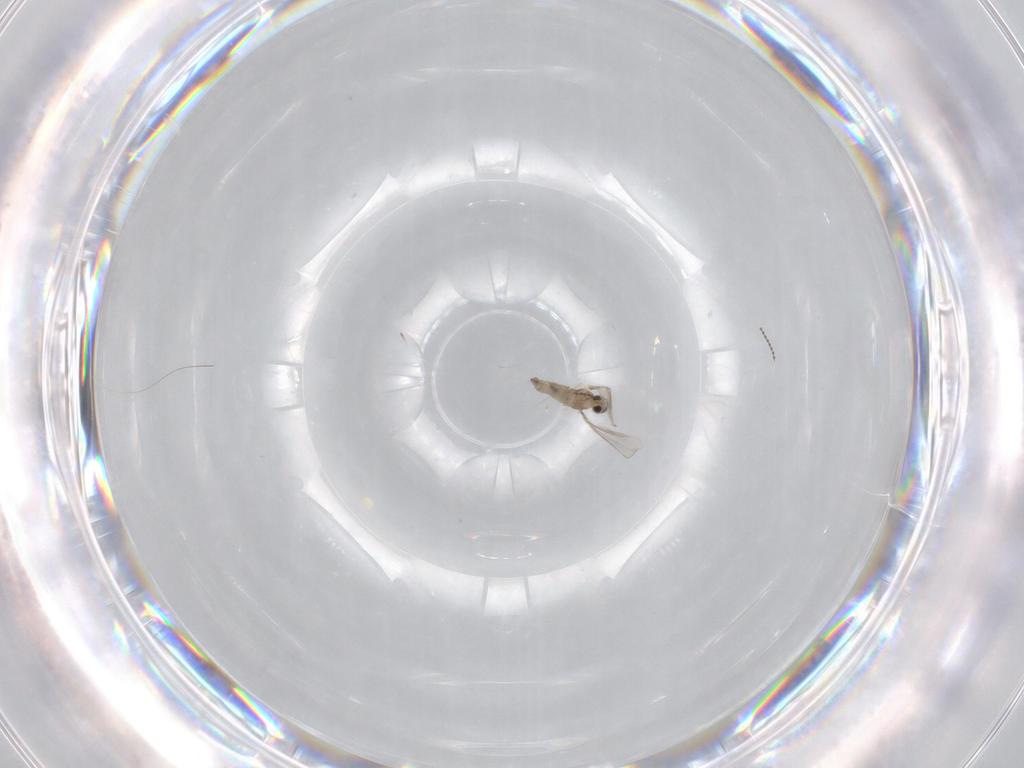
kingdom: Animalia
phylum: Arthropoda
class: Insecta
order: Diptera
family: Cecidomyiidae
